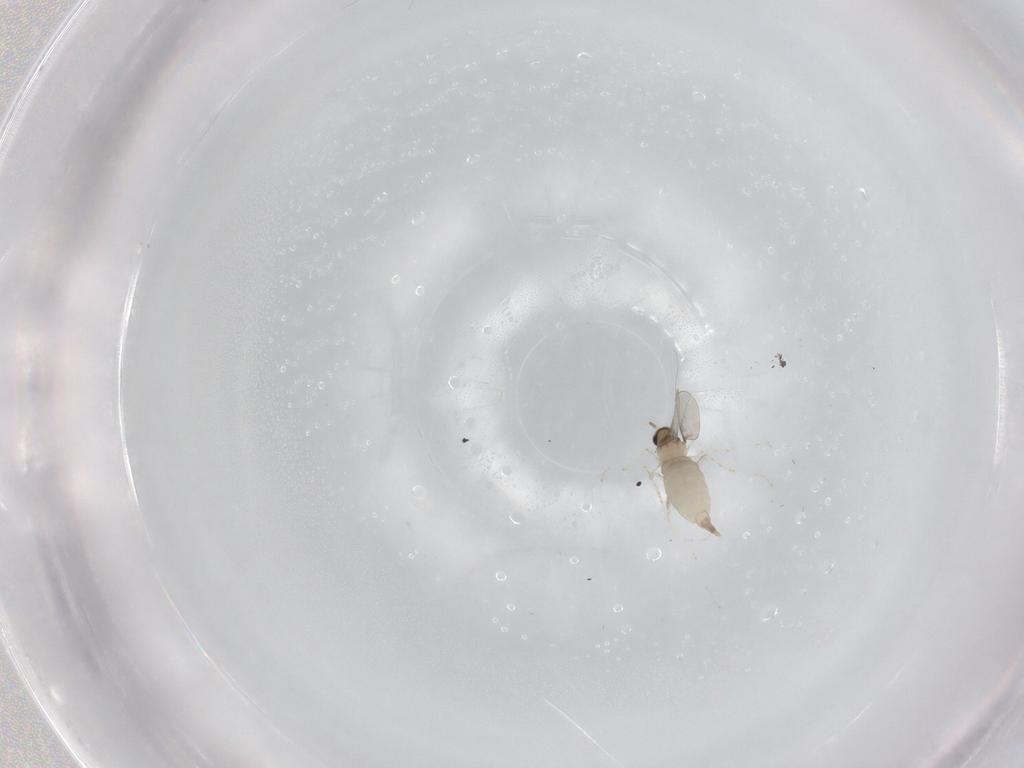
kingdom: Animalia
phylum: Arthropoda
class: Insecta
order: Diptera
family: Cecidomyiidae
